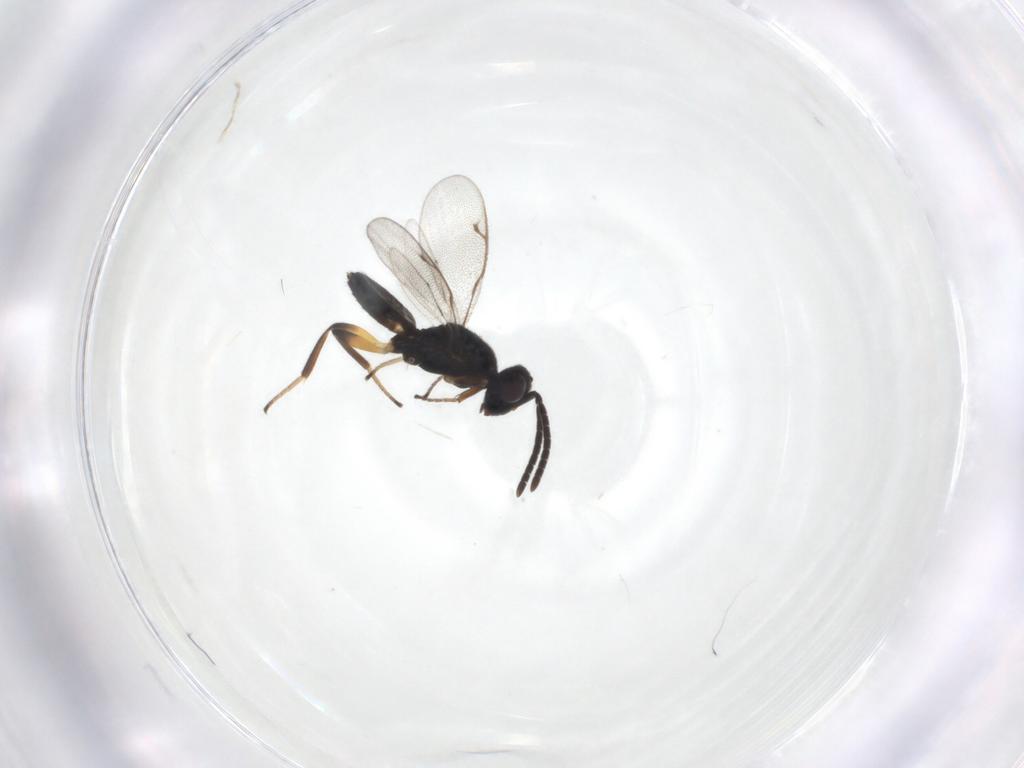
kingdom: Animalia
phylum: Arthropoda
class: Insecta
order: Hymenoptera
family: Eupelmidae
